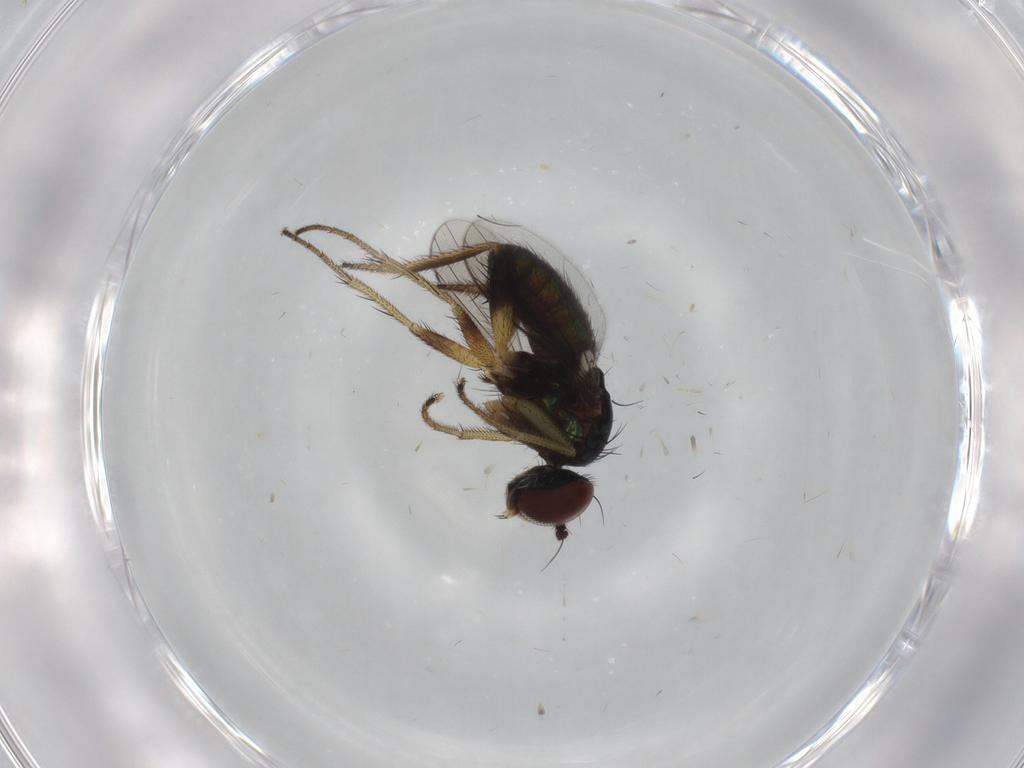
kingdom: Animalia
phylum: Arthropoda
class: Insecta
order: Diptera
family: Dolichopodidae
